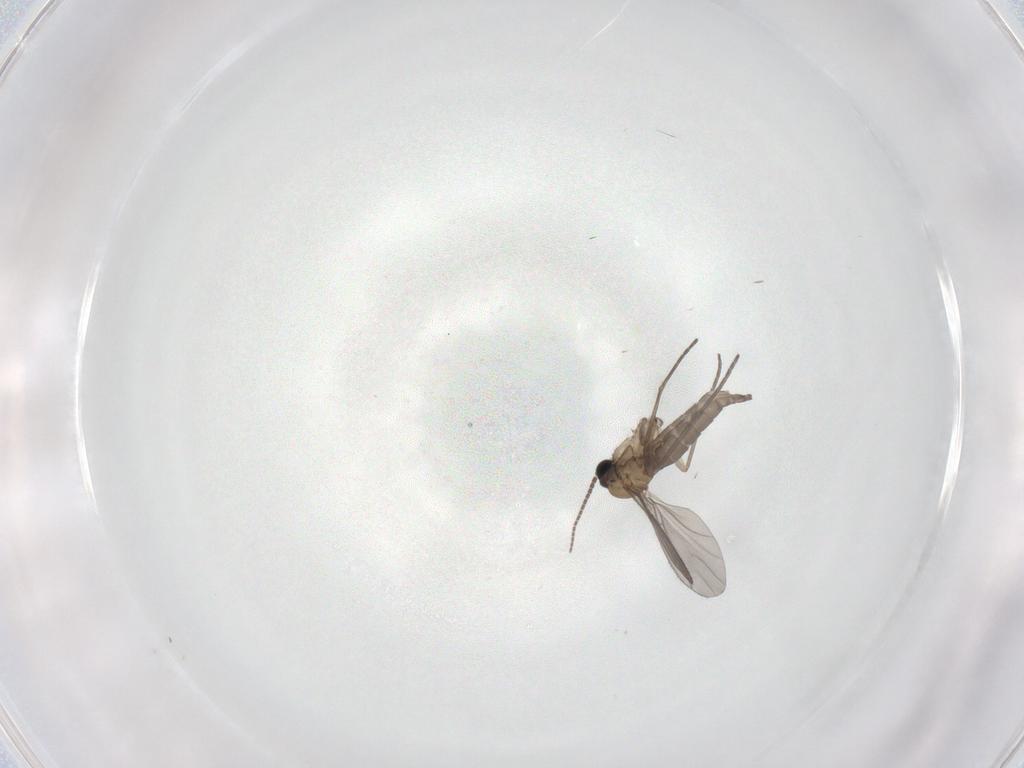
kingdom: Animalia
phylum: Arthropoda
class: Insecta
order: Diptera
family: Sciaridae
